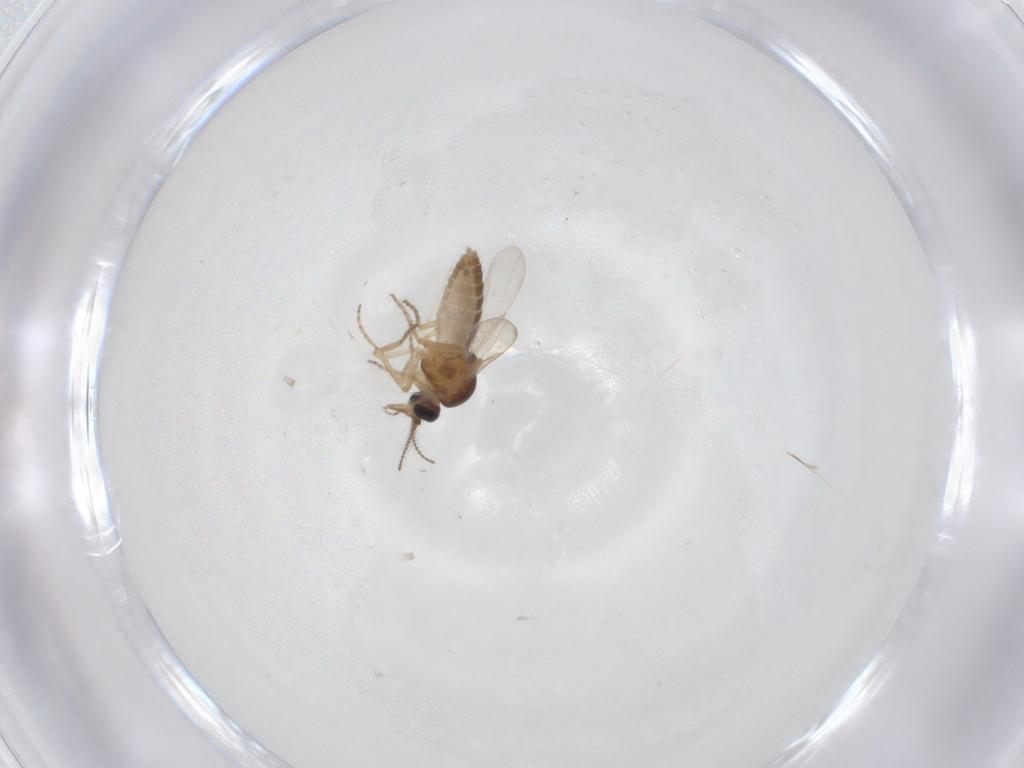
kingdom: Animalia
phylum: Arthropoda
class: Insecta
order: Diptera
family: Ceratopogonidae
